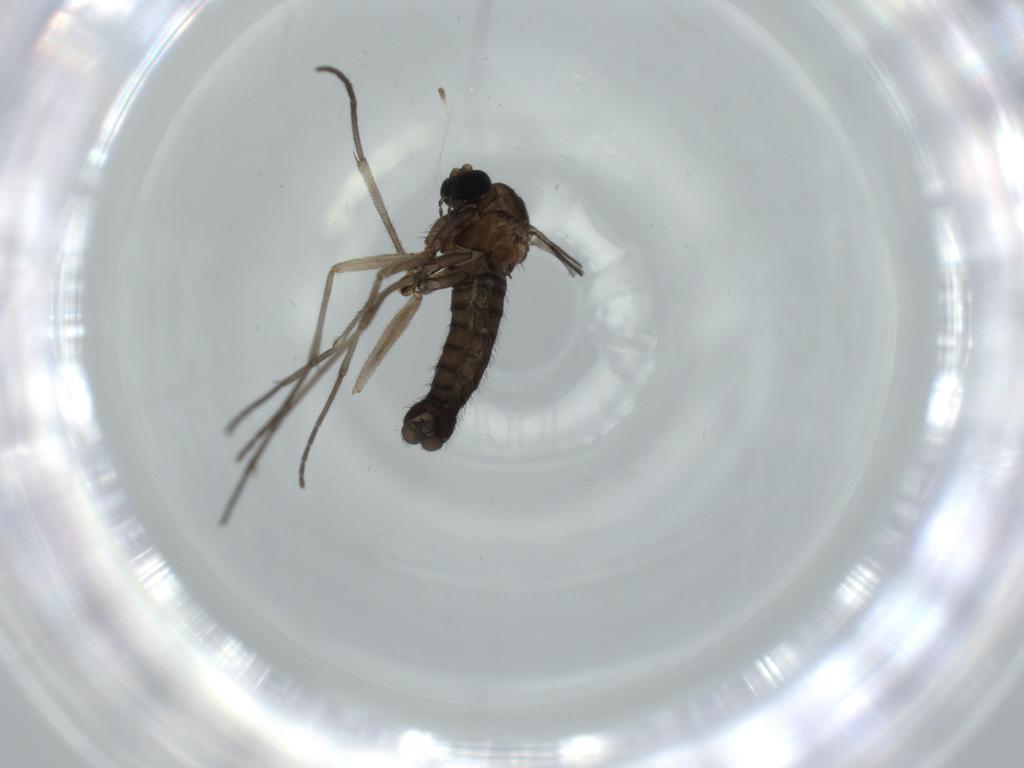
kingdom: Animalia
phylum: Arthropoda
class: Insecta
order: Diptera
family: Sciaridae
